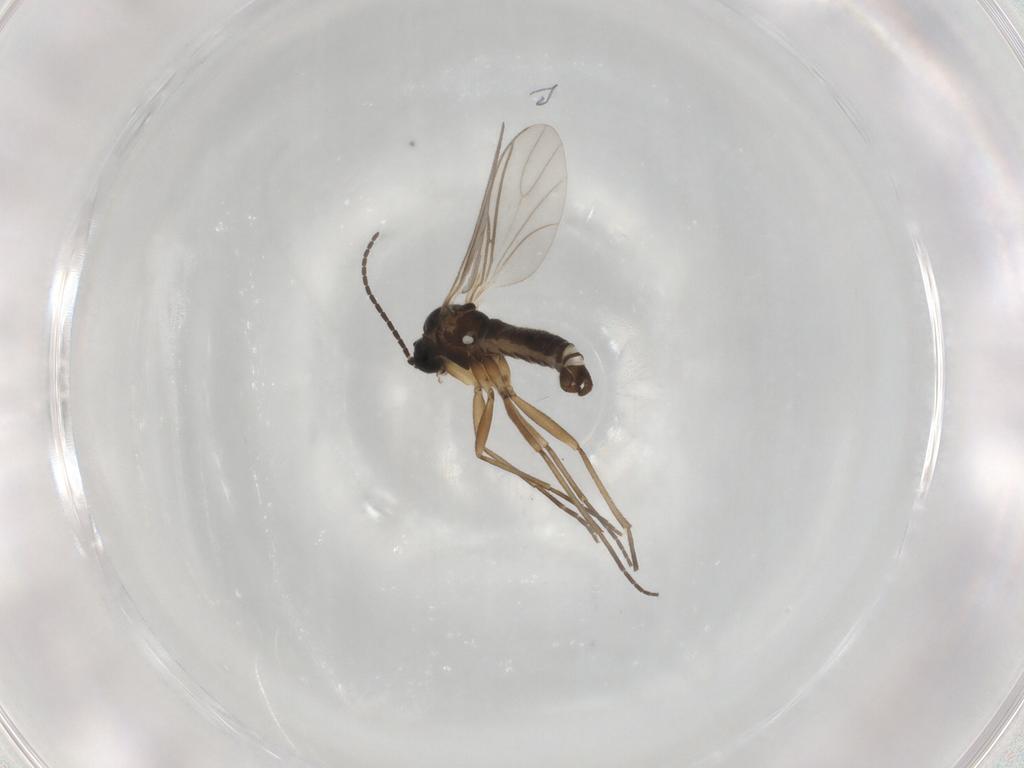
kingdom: Animalia
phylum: Arthropoda
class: Insecta
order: Diptera
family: Sciaridae
